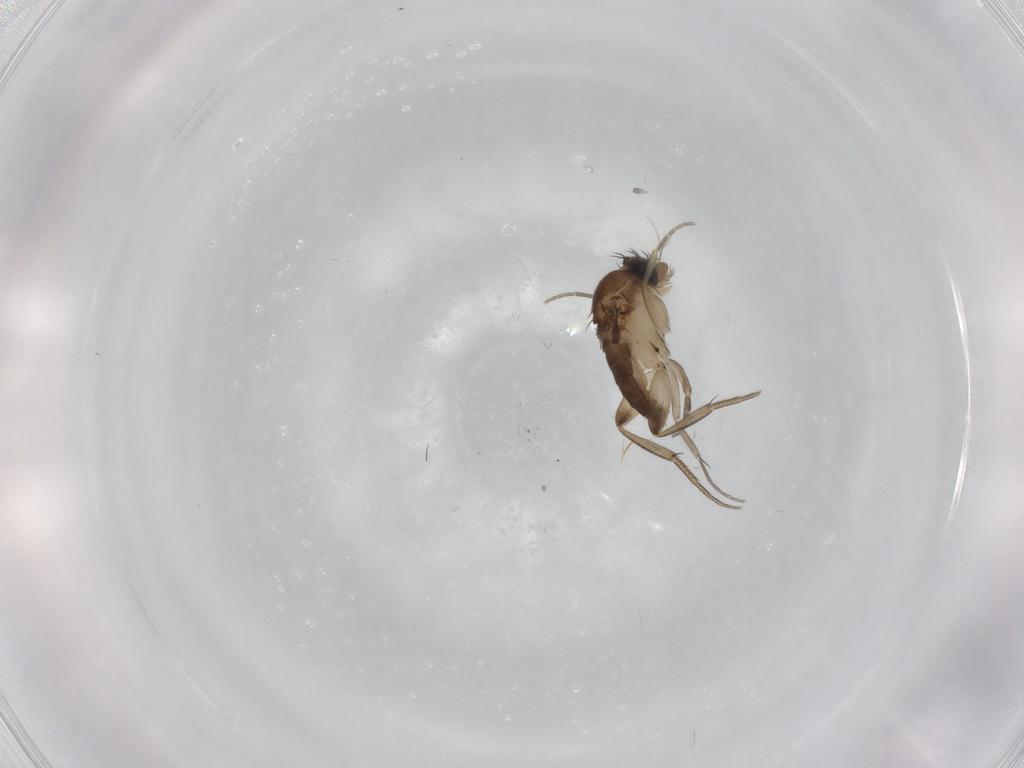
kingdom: Animalia
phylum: Arthropoda
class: Insecta
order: Diptera
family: Phoridae
